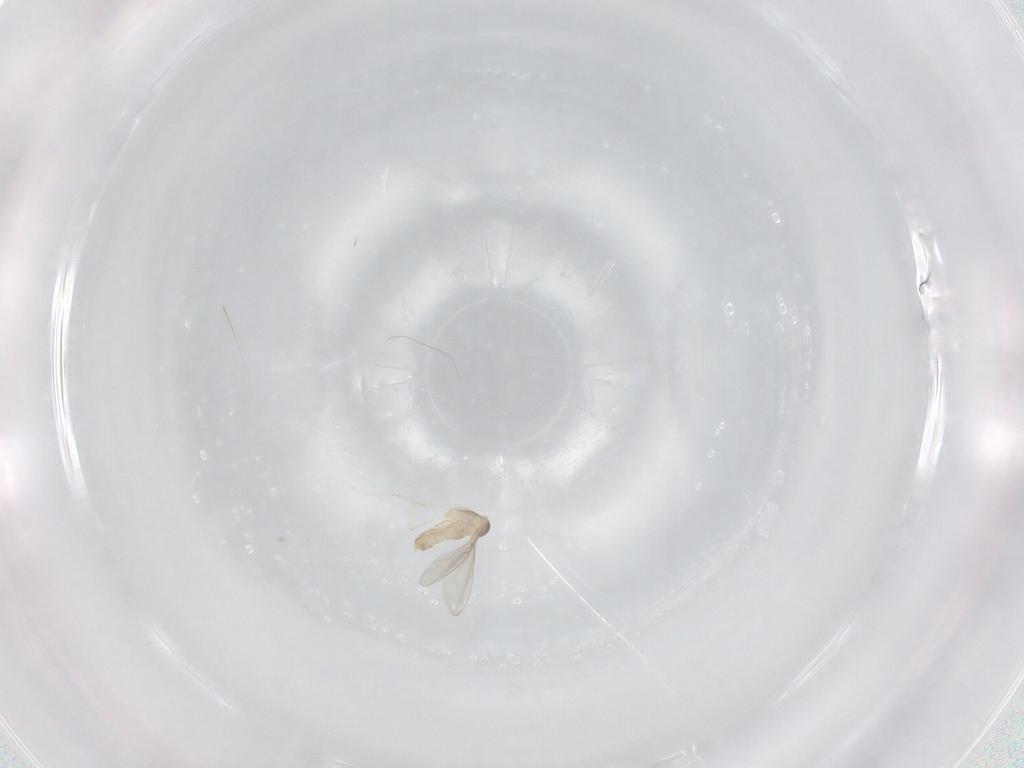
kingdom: Animalia
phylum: Arthropoda
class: Insecta
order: Diptera
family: Cecidomyiidae
